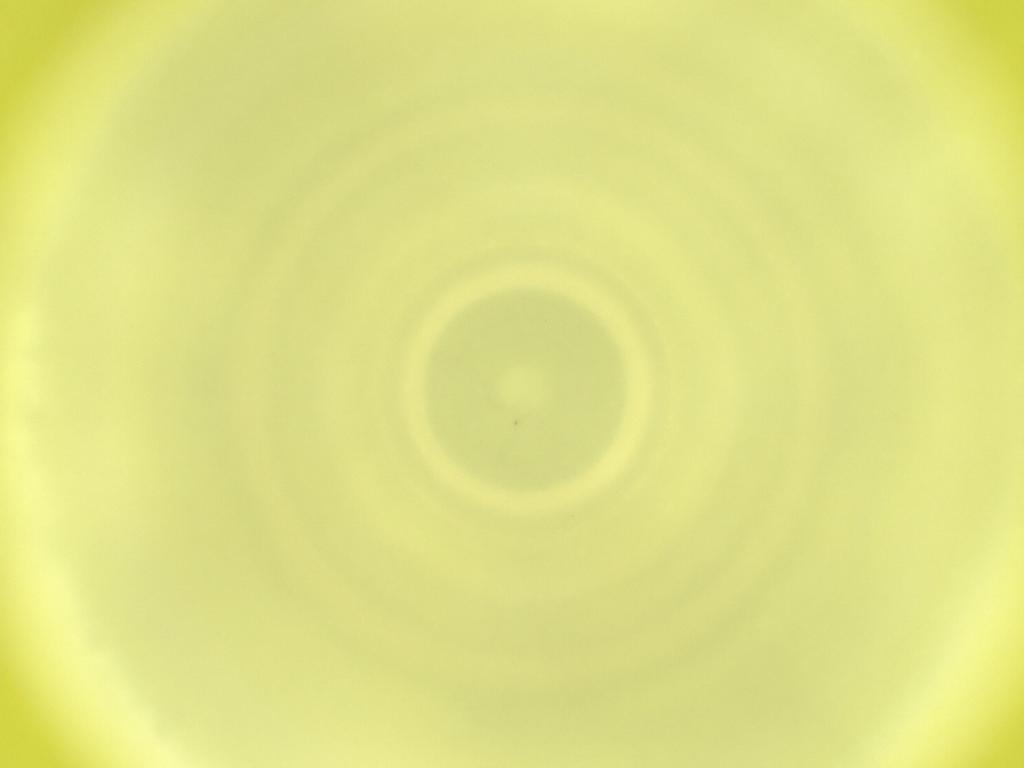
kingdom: Animalia
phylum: Arthropoda
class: Insecta
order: Diptera
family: Cecidomyiidae
